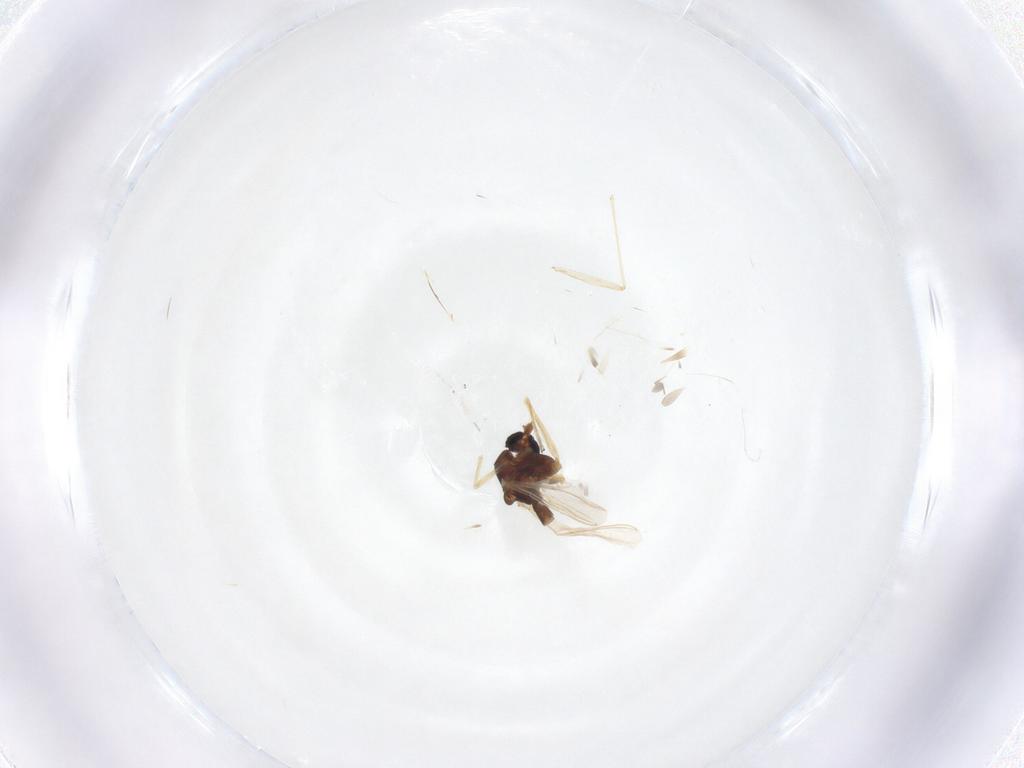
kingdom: Animalia
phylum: Arthropoda
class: Insecta
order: Diptera
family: Chironomidae
